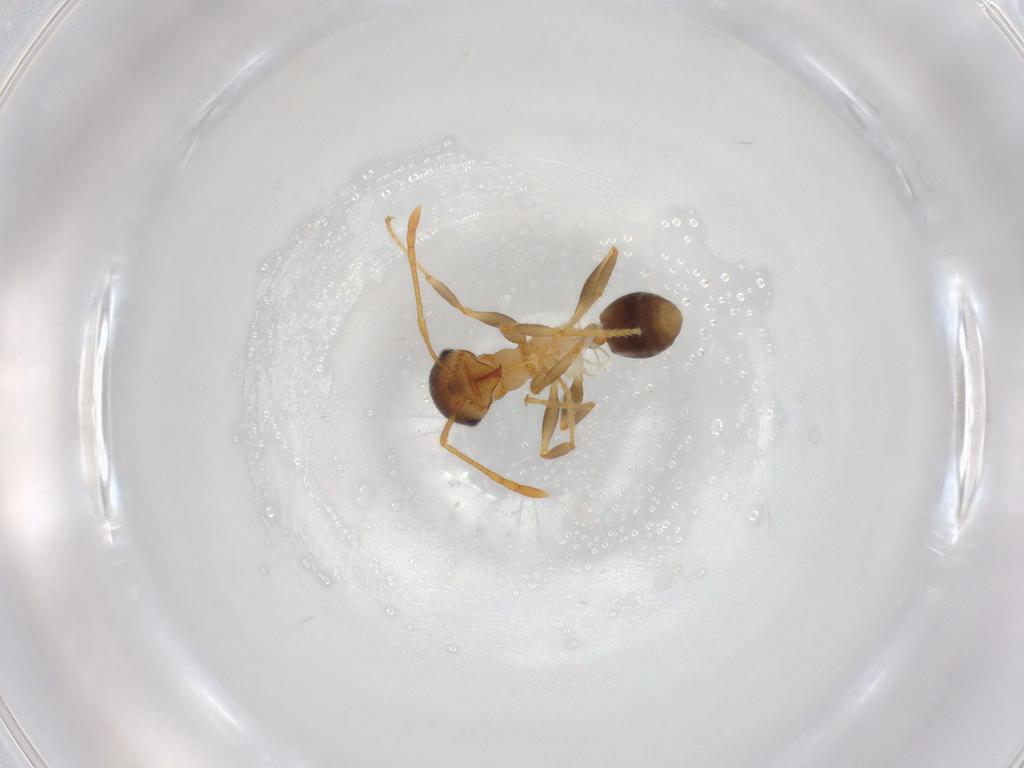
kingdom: Animalia
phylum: Arthropoda
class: Insecta
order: Hymenoptera
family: Formicidae
